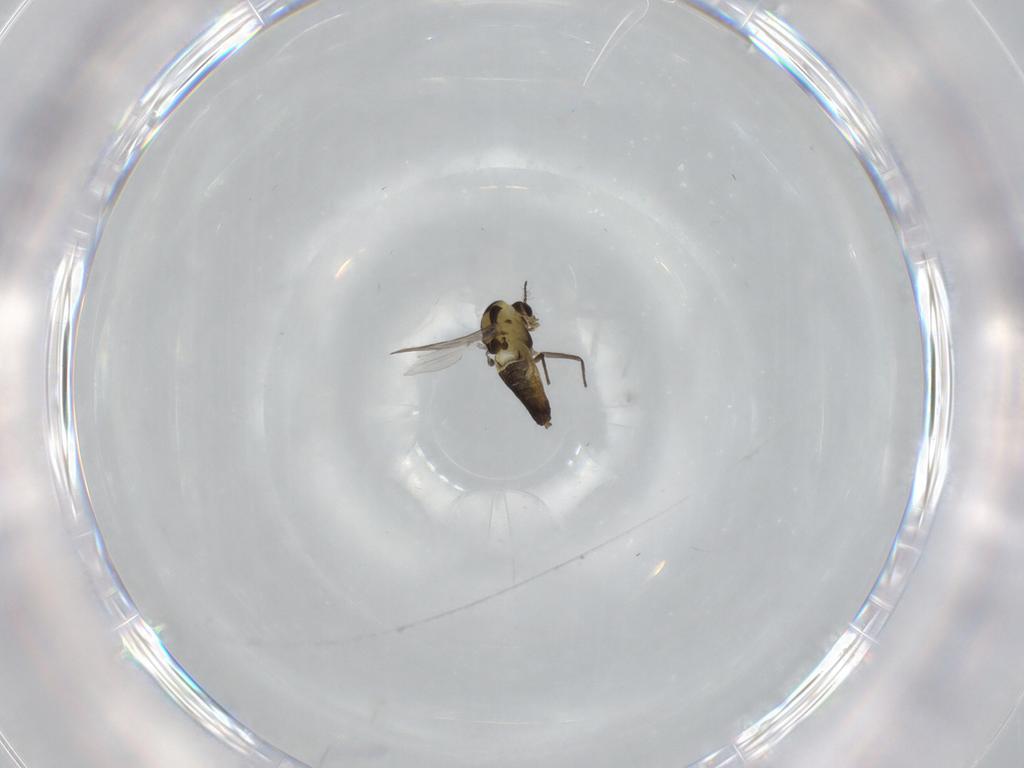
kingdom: Animalia
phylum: Arthropoda
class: Insecta
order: Diptera
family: Chironomidae
